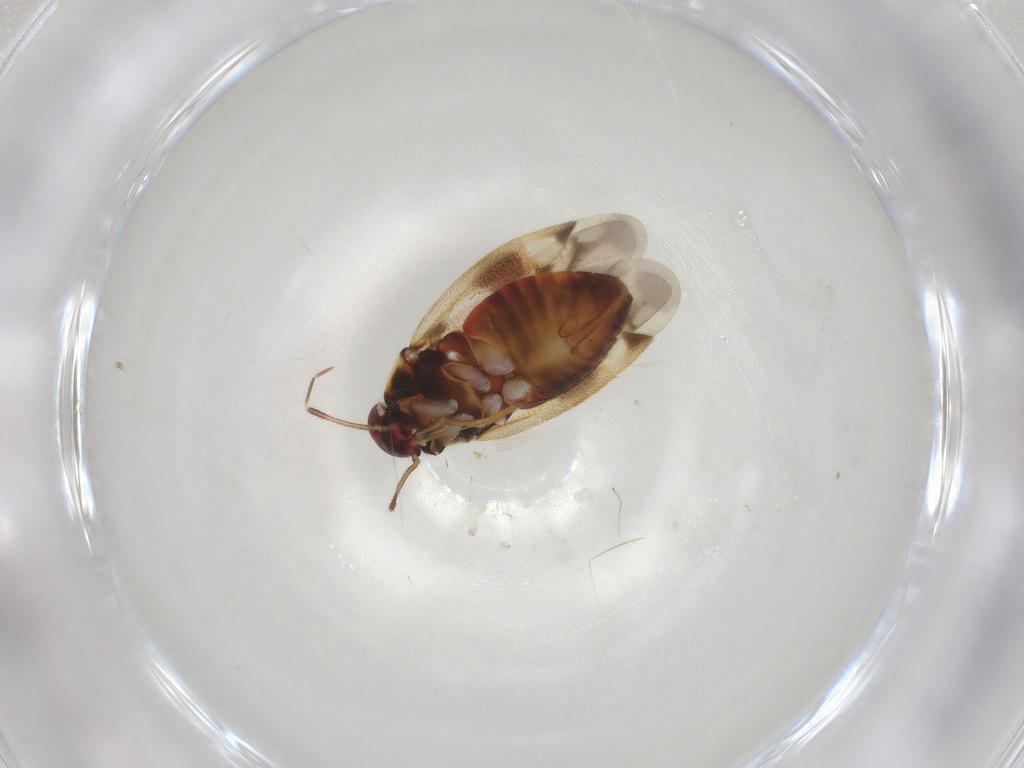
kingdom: Animalia
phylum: Arthropoda
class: Insecta
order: Hemiptera
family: Miridae
